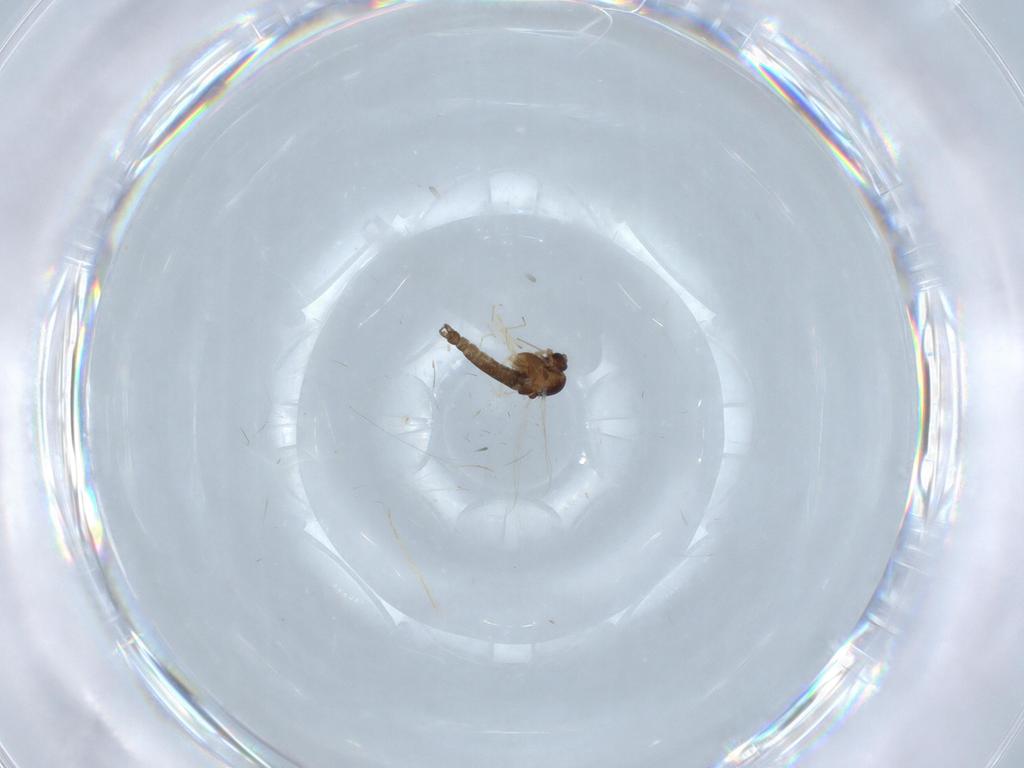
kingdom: Animalia
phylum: Arthropoda
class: Insecta
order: Diptera
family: Chironomidae
